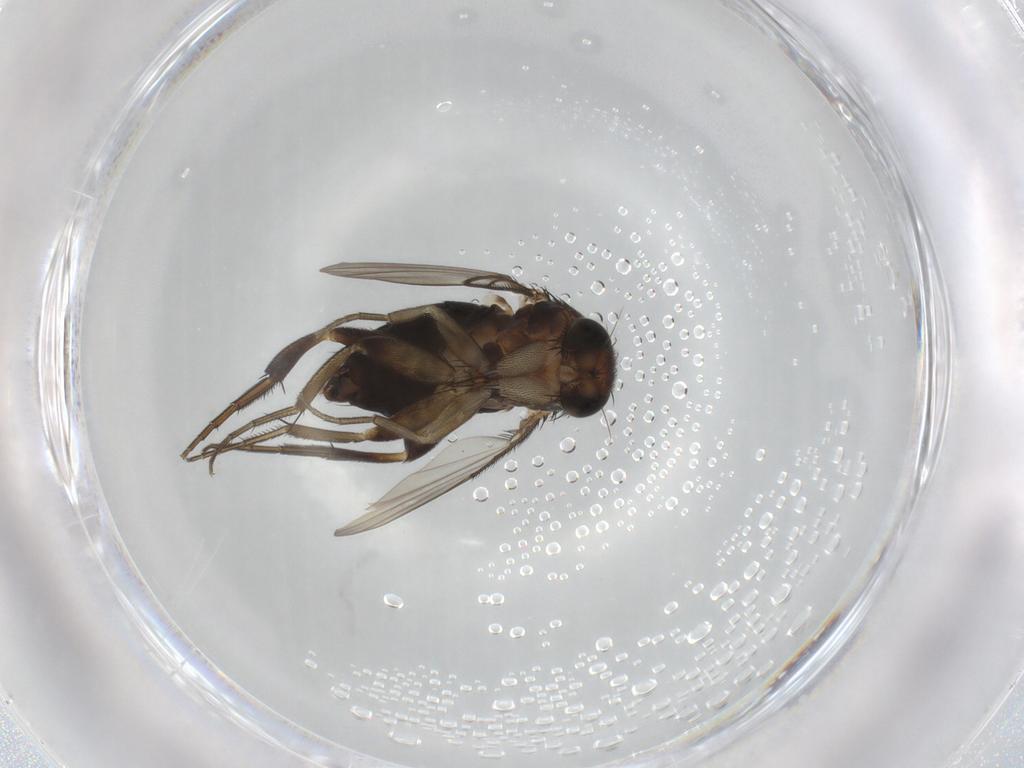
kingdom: Animalia
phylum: Arthropoda
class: Insecta
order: Diptera
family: Phoridae
